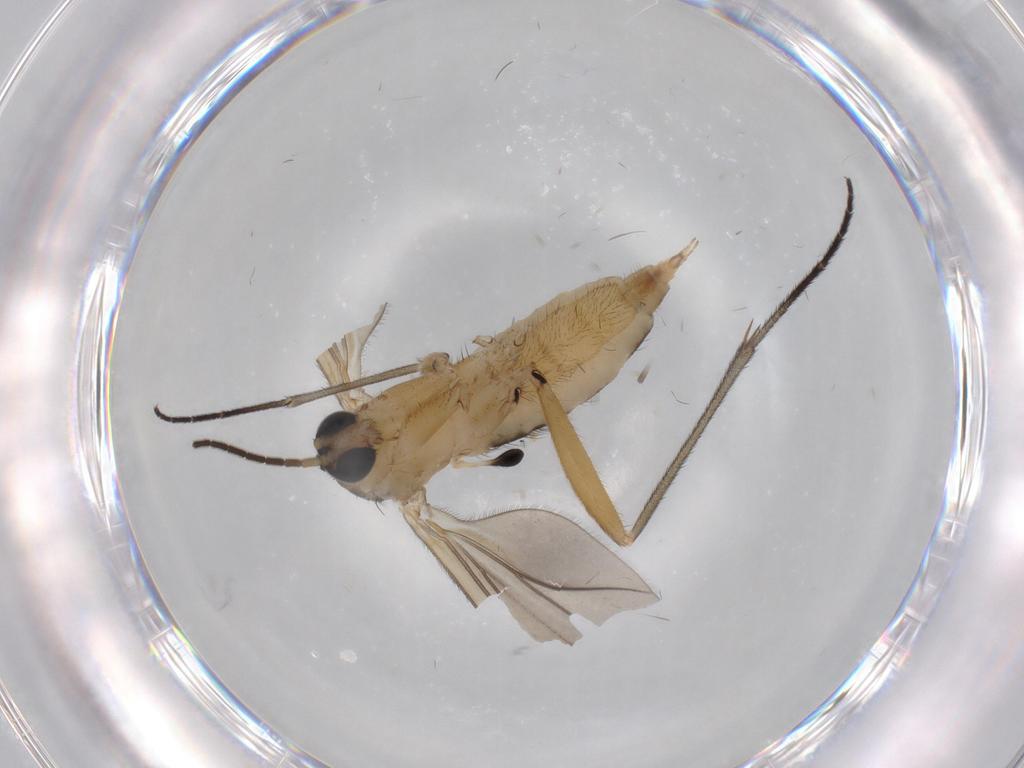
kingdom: Animalia
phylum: Arthropoda
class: Insecta
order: Diptera
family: Sciaridae
